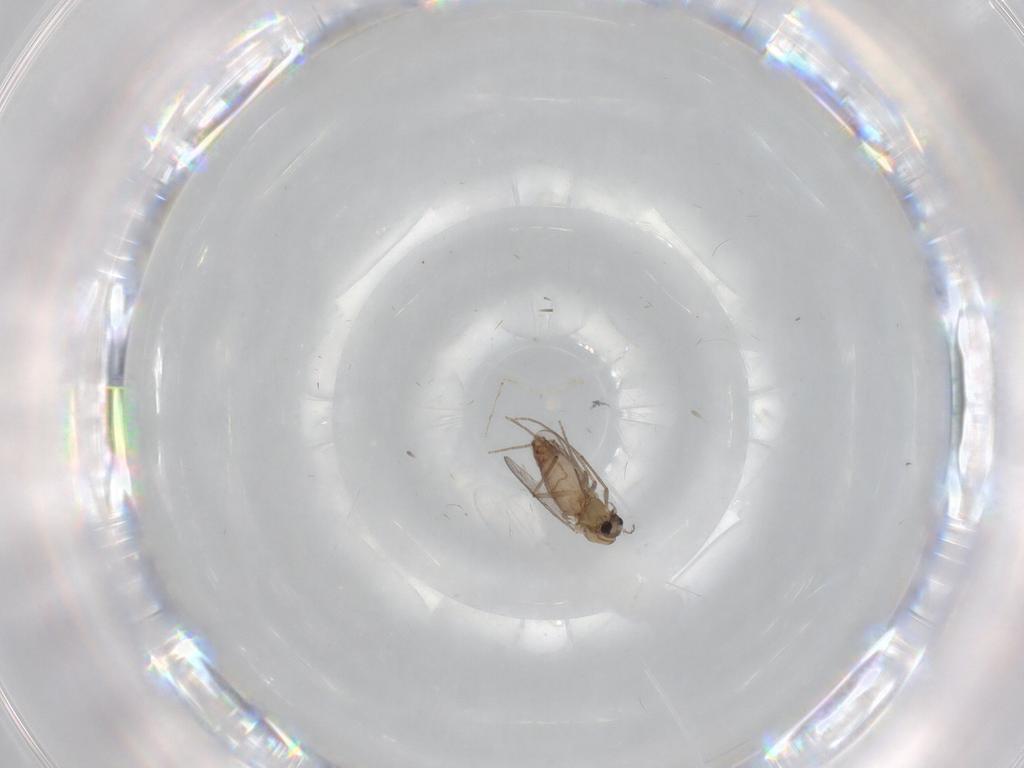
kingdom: Animalia
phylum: Arthropoda
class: Insecta
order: Diptera
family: Chironomidae
